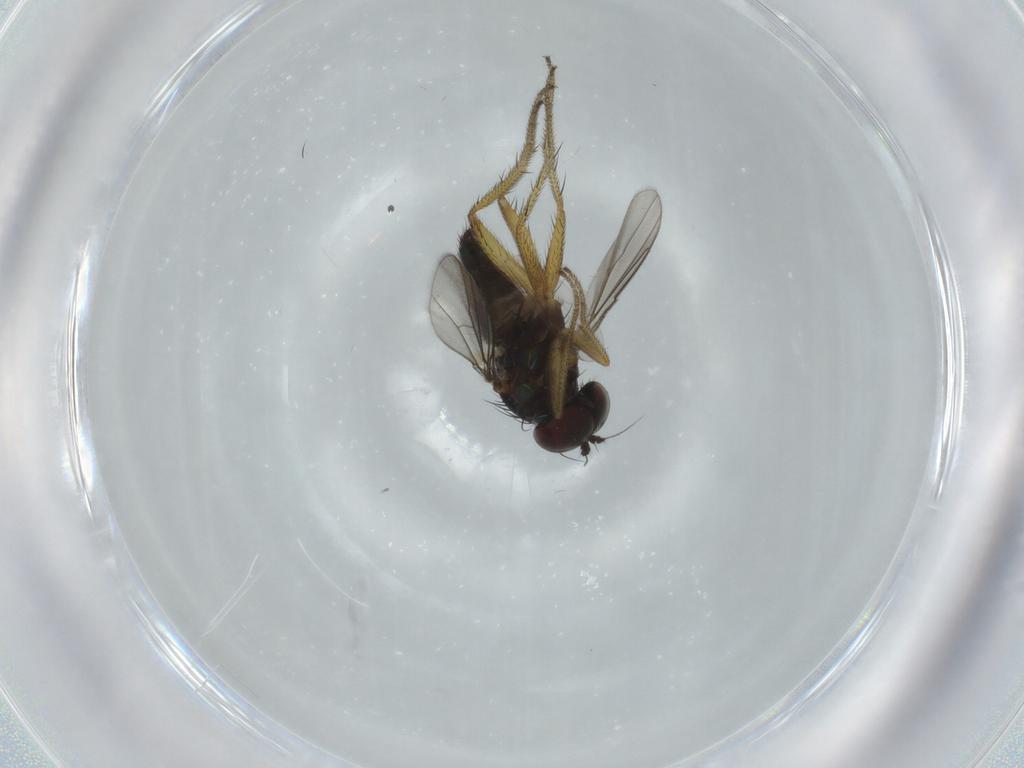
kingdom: Animalia
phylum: Arthropoda
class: Insecta
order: Diptera
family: Dolichopodidae
